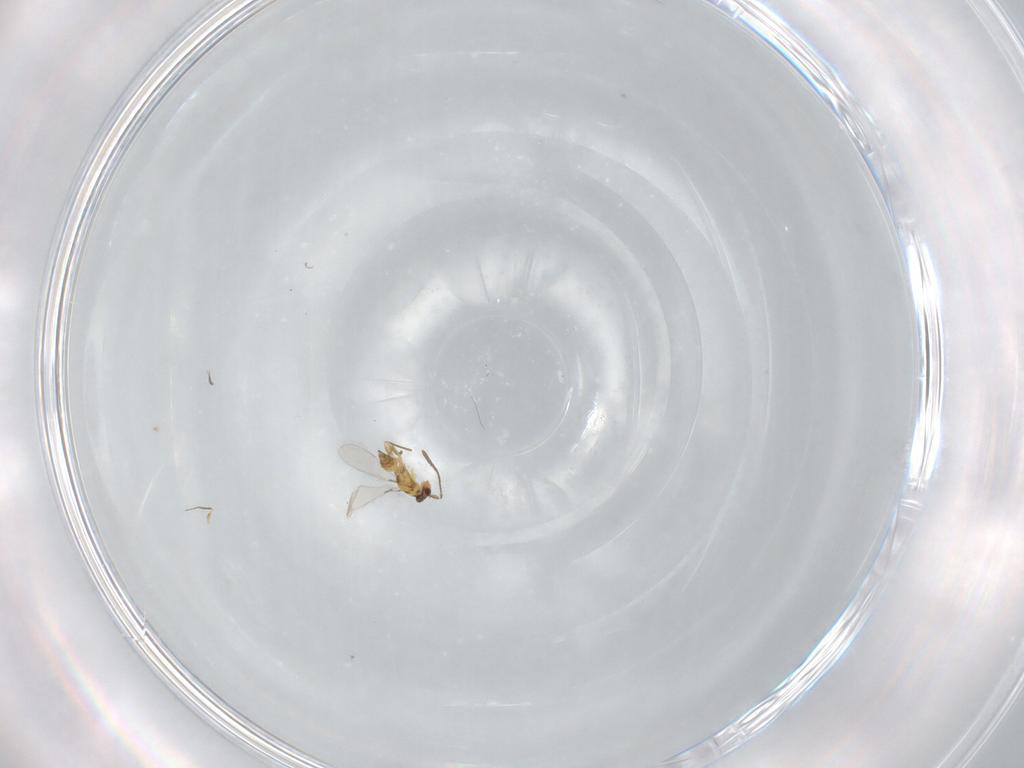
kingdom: Animalia
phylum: Arthropoda
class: Insecta
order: Hymenoptera
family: Mymaridae
